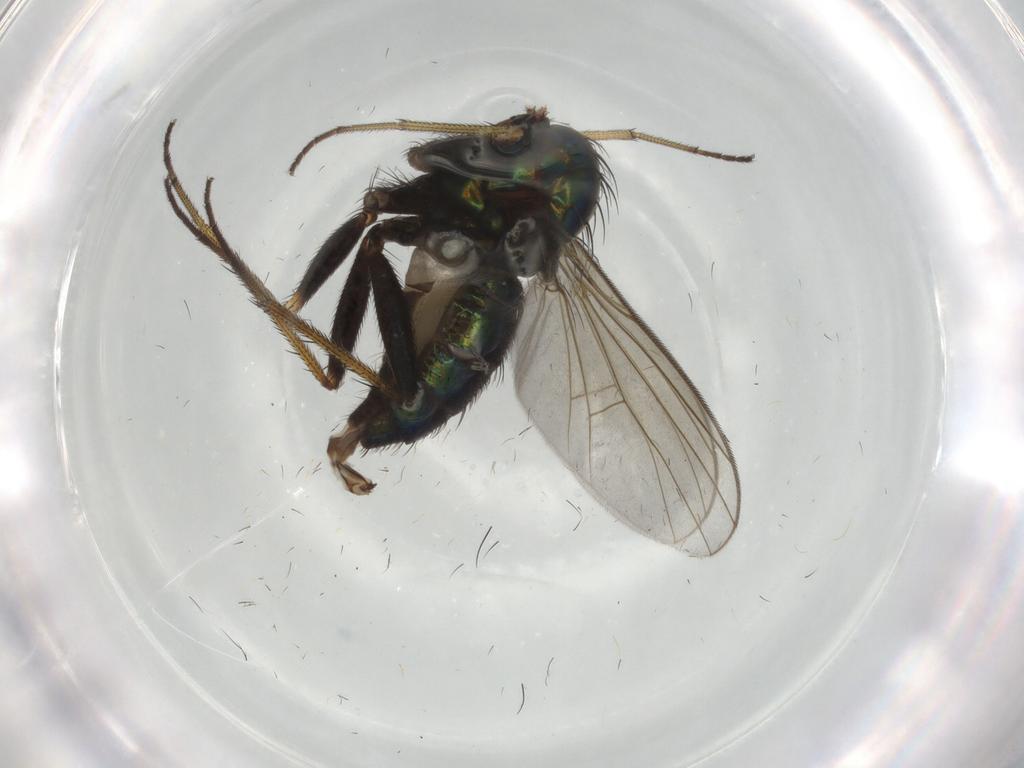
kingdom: Animalia
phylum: Arthropoda
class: Insecta
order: Diptera
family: Dolichopodidae
